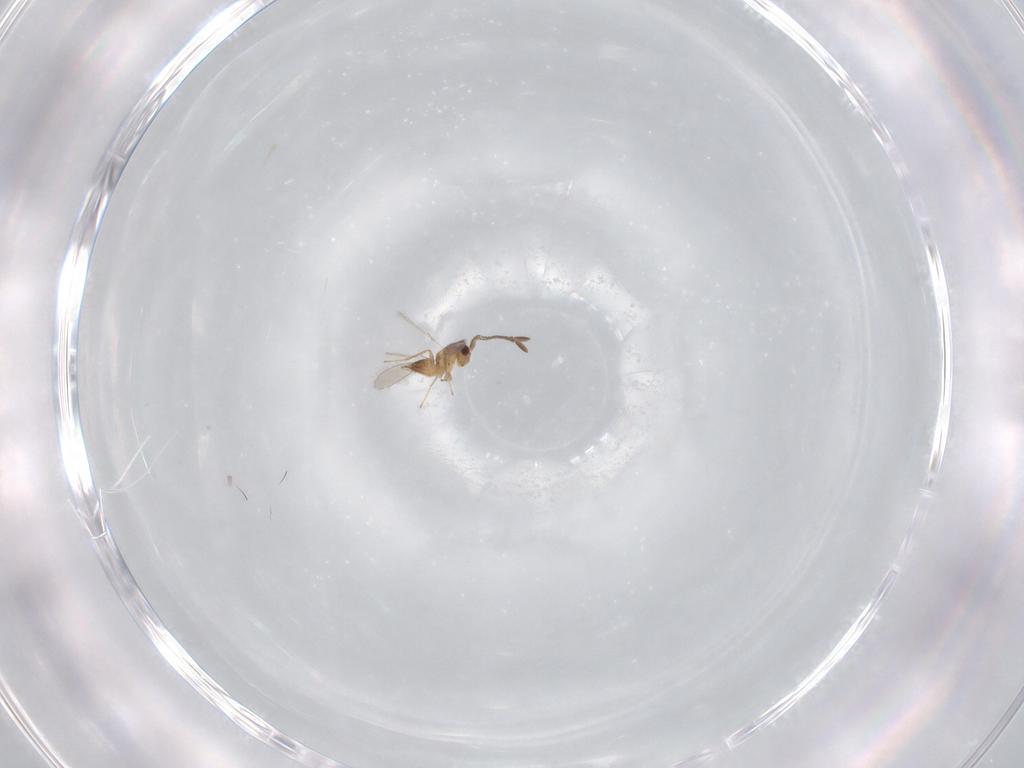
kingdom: Animalia
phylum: Arthropoda
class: Insecta
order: Hymenoptera
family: Mymaridae
